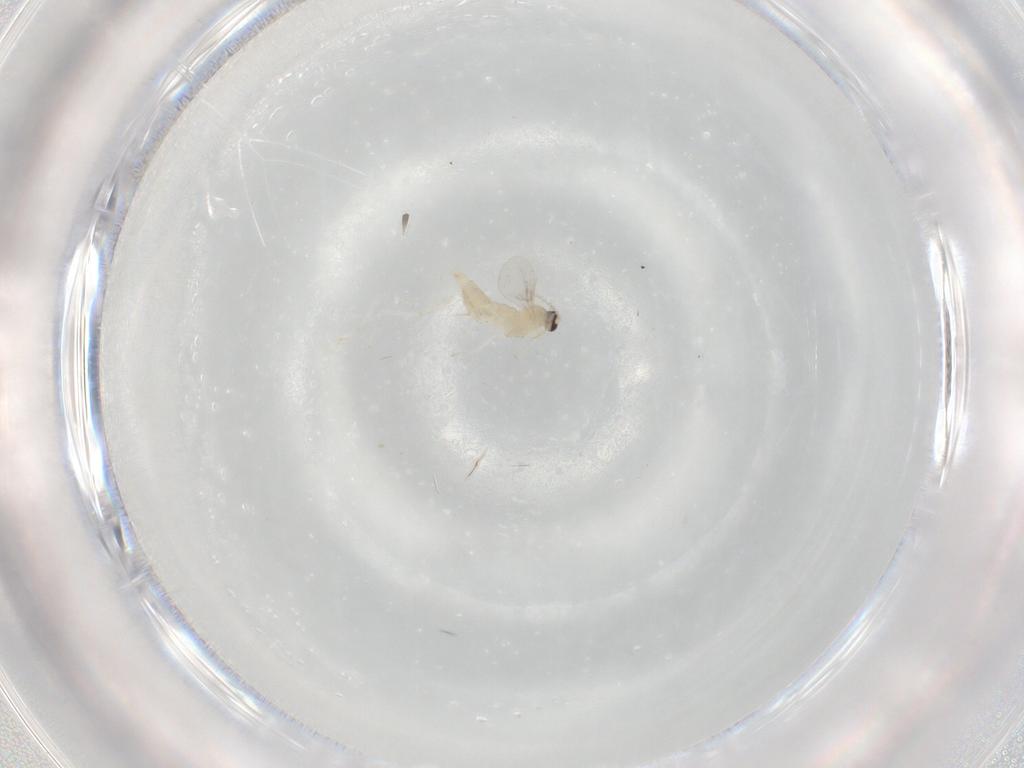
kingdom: Animalia
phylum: Arthropoda
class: Insecta
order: Diptera
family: Cecidomyiidae
